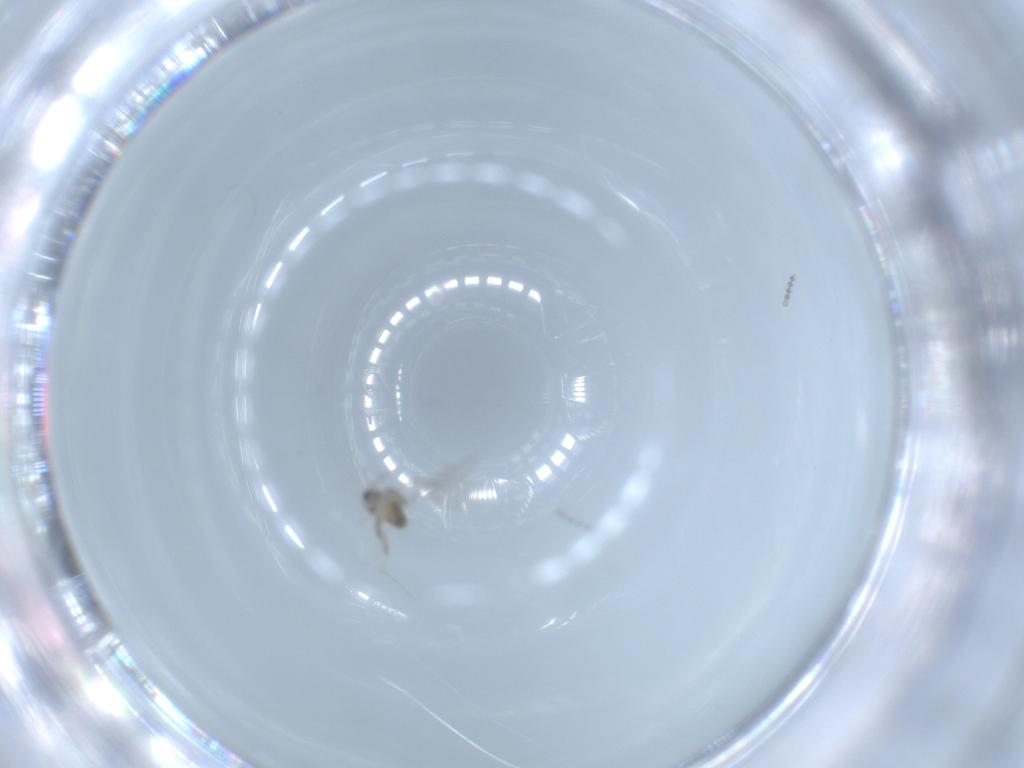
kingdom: Animalia
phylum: Arthropoda
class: Insecta
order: Diptera
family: Cecidomyiidae
